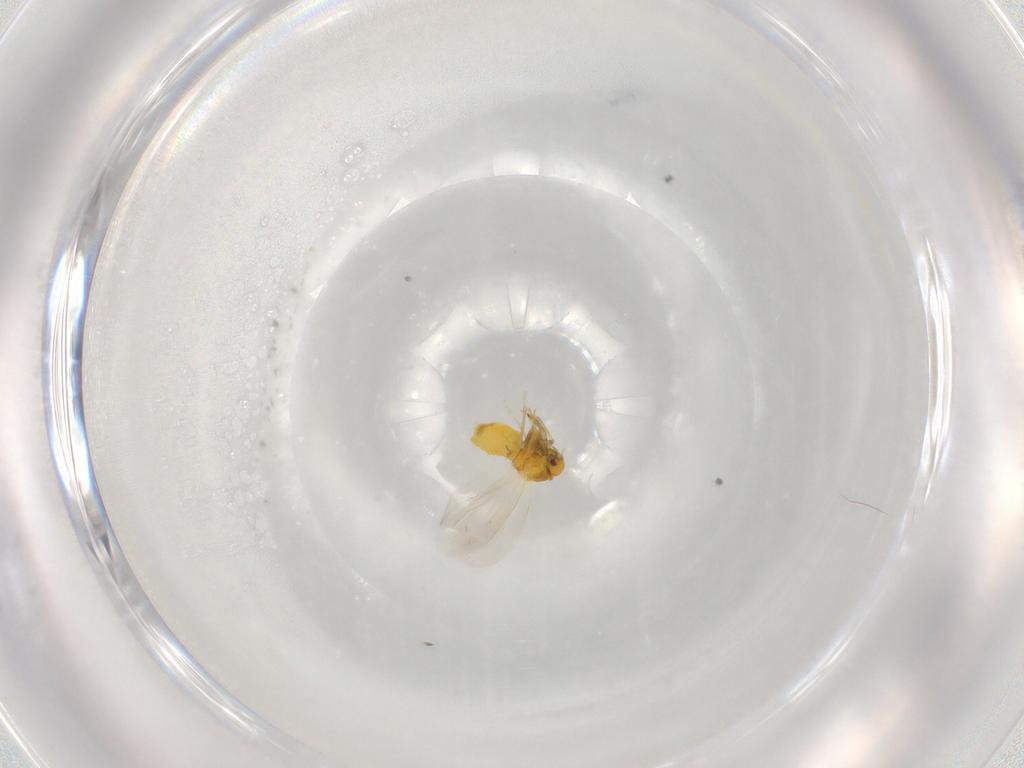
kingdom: Animalia
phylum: Arthropoda
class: Insecta
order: Hemiptera
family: Aleyrodidae
